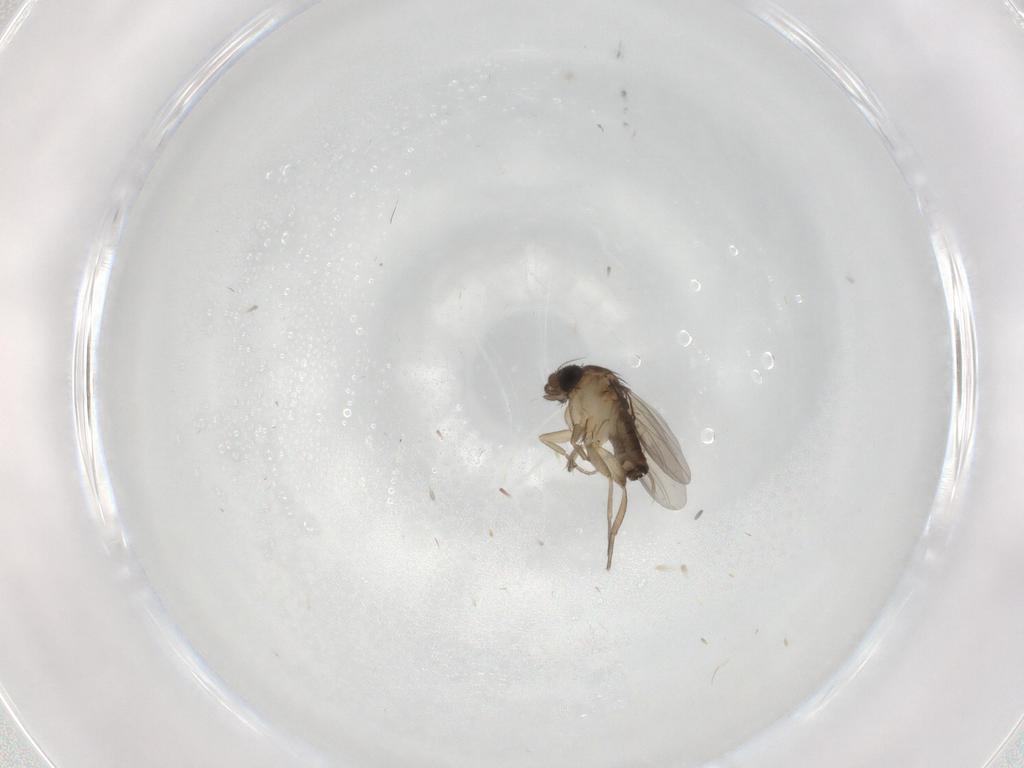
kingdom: Animalia
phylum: Arthropoda
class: Insecta
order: Diptera
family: Phoridae
